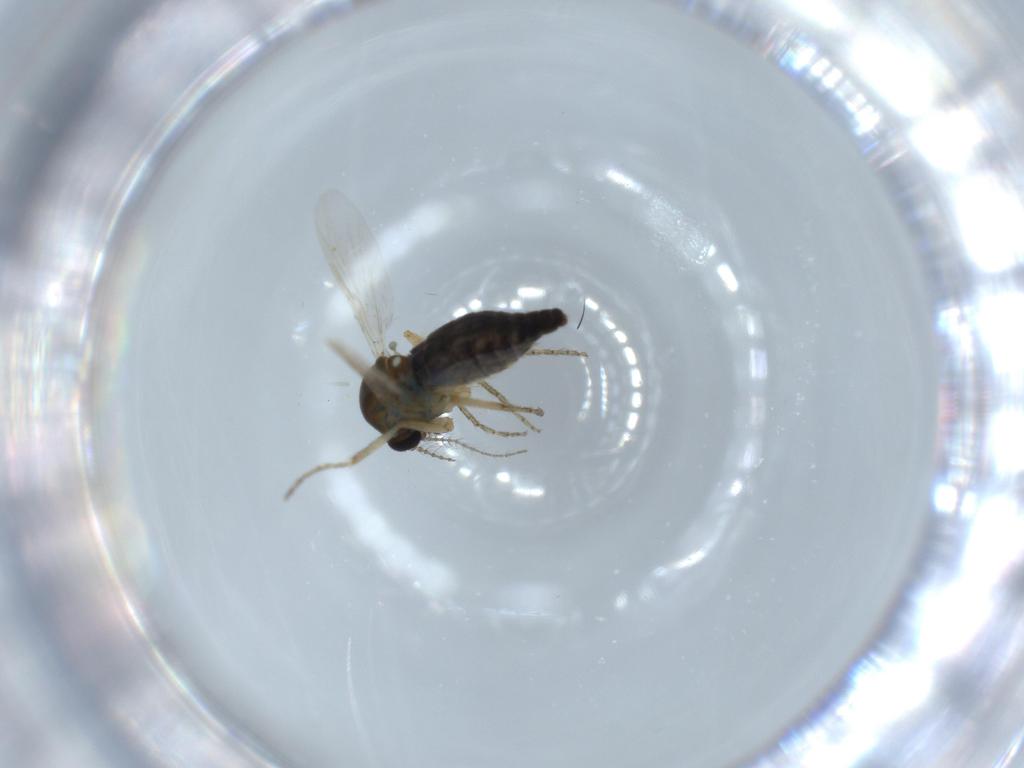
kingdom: Animalia
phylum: Arthropoda
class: Insecta
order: Diptera
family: Ceratopogonidae
